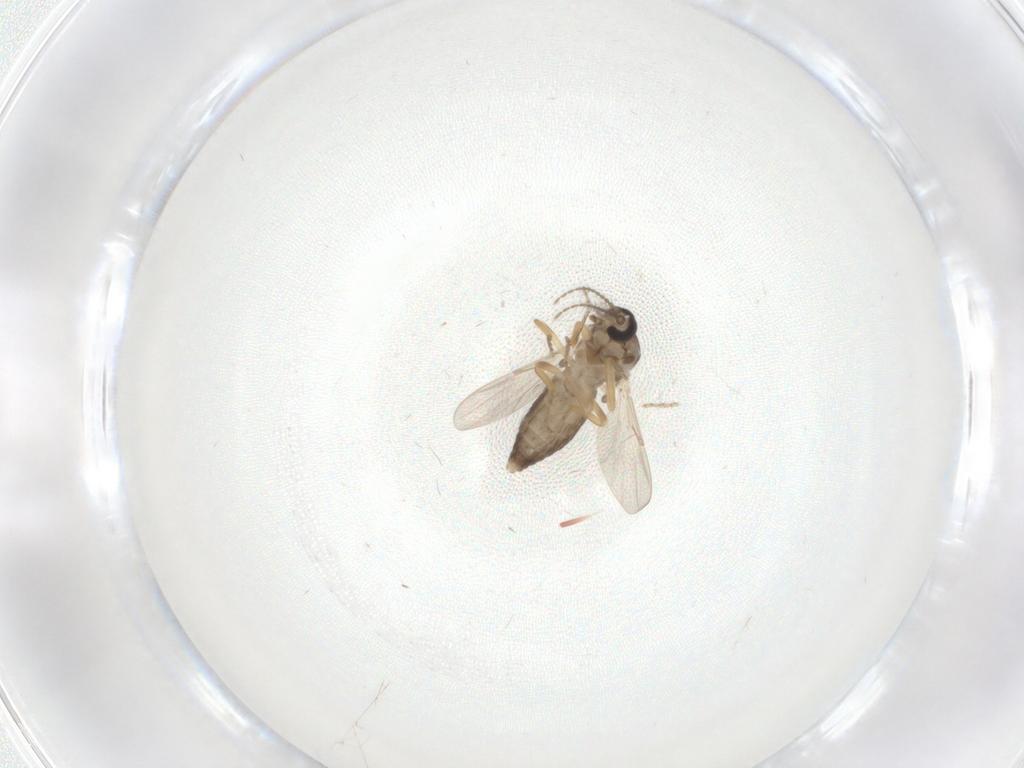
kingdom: Animalia
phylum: Arthropoda
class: Insecta
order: Diptera
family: Ceratopogonidae
